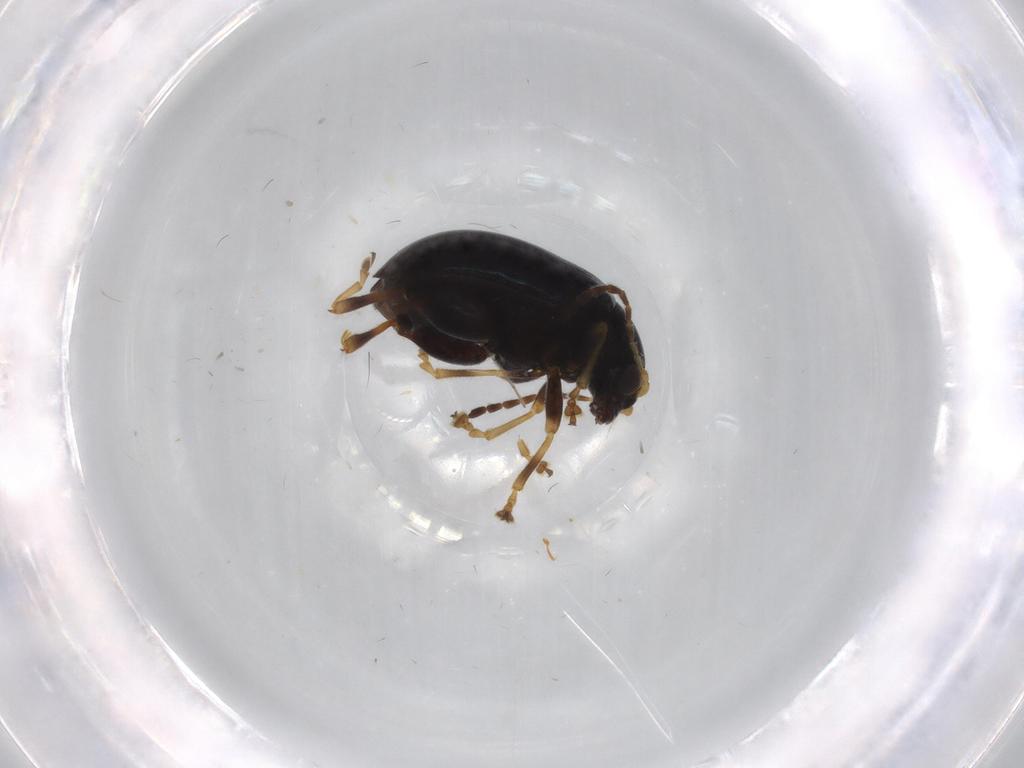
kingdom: Animalia
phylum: Arthropoda
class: Insecta
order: Coleoptera
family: Chrysomelidae
